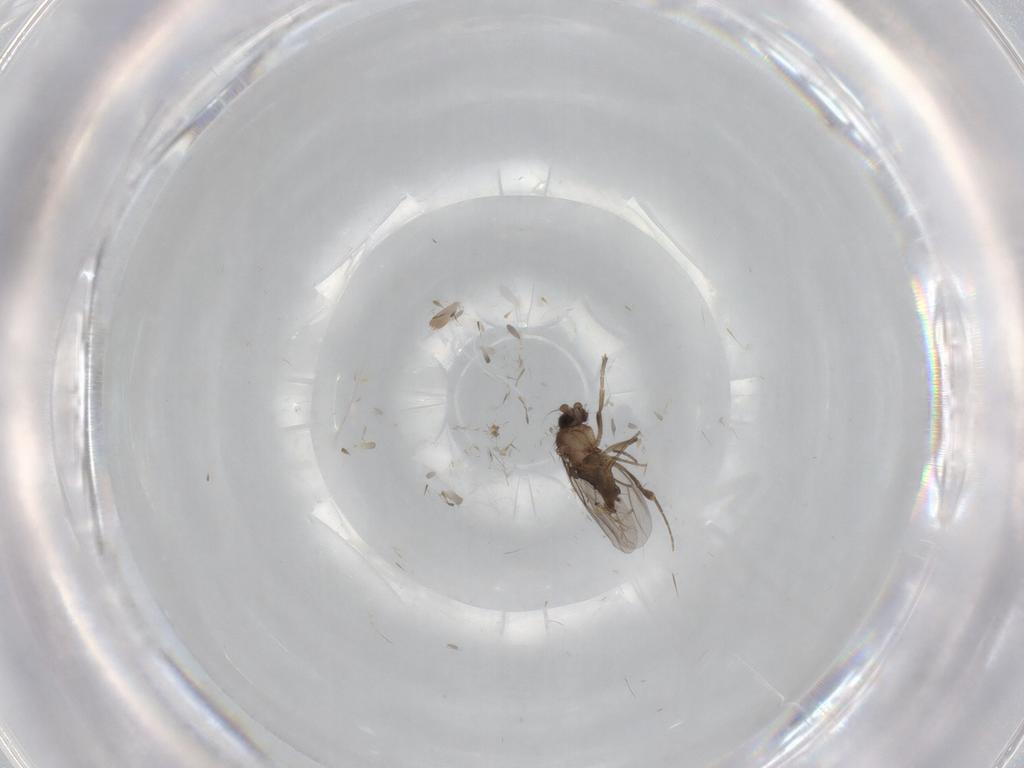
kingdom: Animalia
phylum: Arthropoda
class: Insecta
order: Diptera
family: Phoridae
